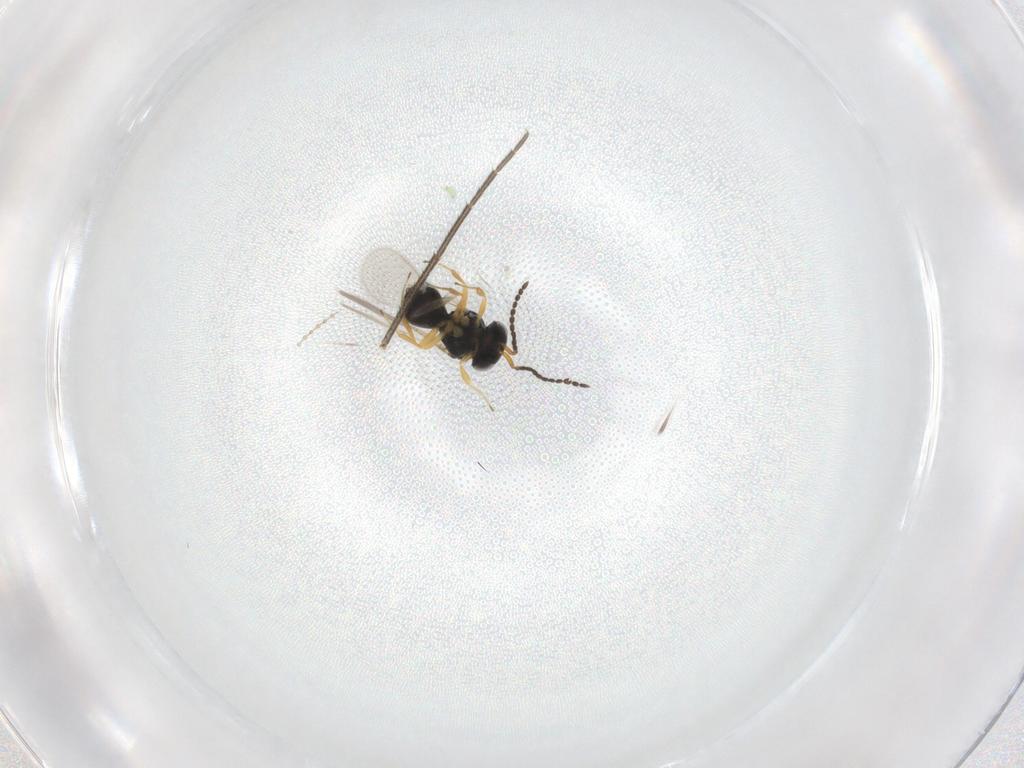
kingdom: Animalia
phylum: Arthropoda
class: Insecta
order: Hymenoptera
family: Scelionidae
